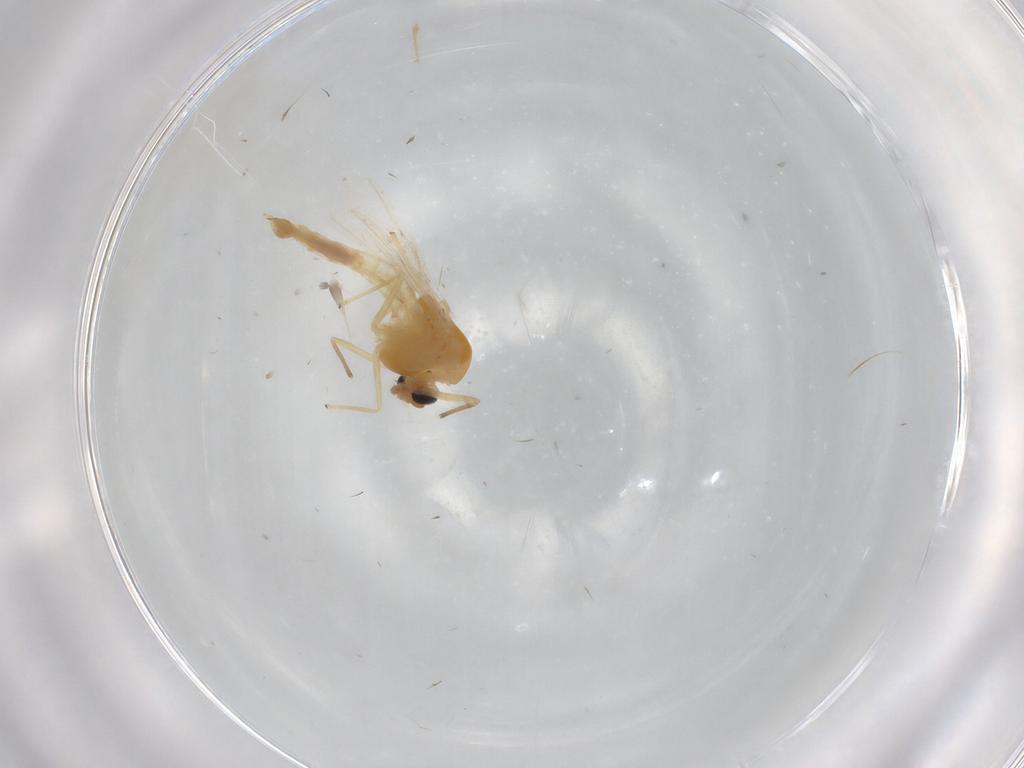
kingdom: Animalia
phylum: Arthropoda
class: Insecta
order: Diptera
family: Chironomidae
